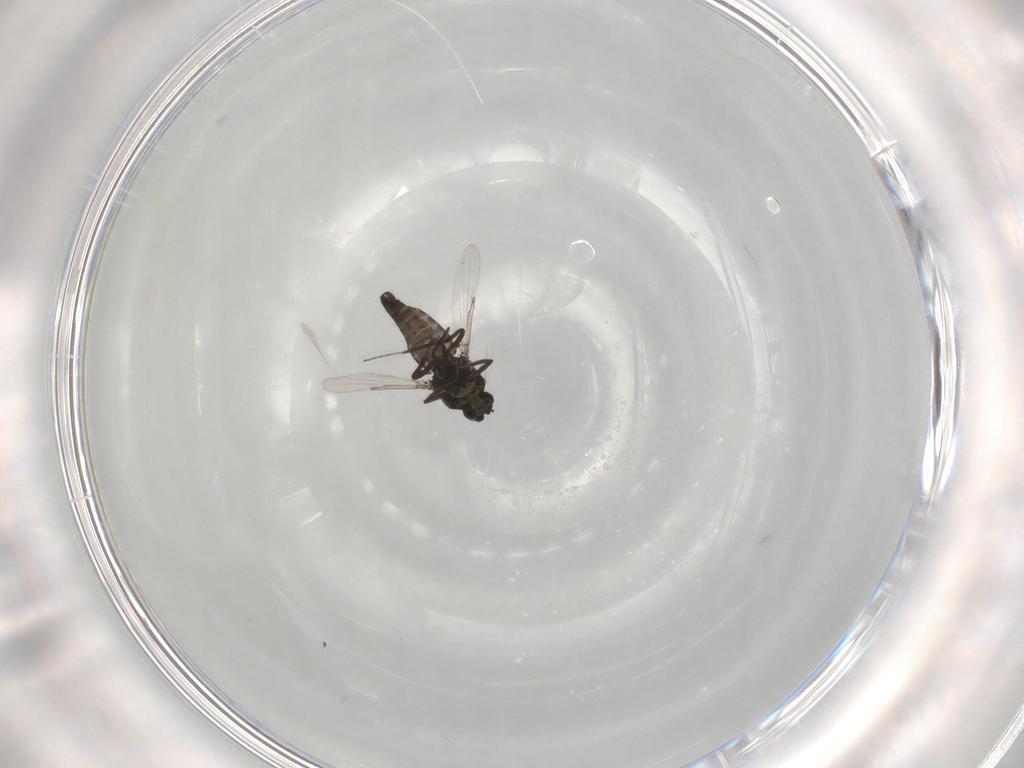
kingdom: Animalia
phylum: Arthropoda
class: Insecta
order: Diptera
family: Ceratopogonidae
